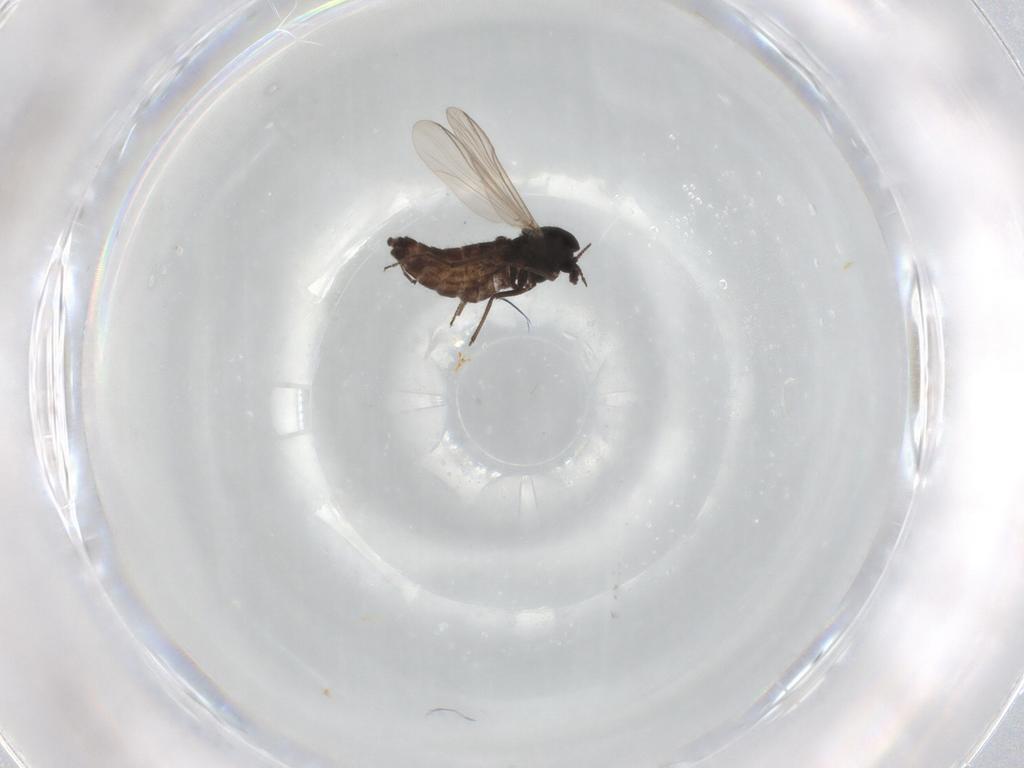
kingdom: Animalia
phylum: Arthropoda
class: Insecta
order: Diptera
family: Chironomidae
